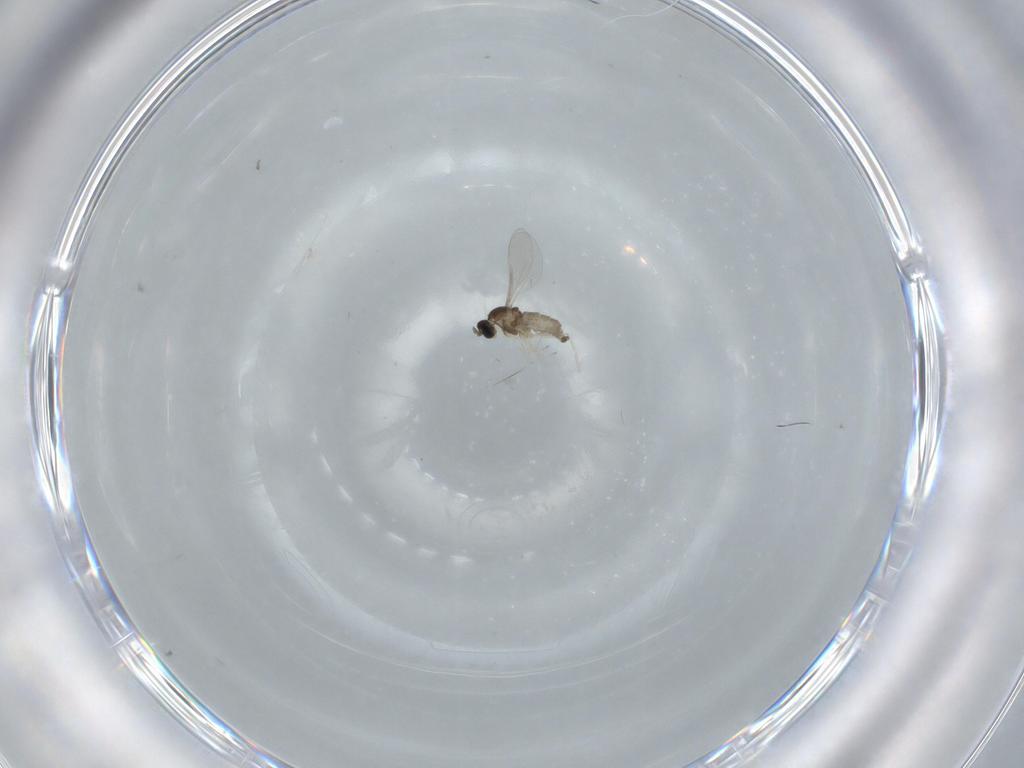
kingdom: Animalia
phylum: Arthropoda
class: Insecta
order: Diptera
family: Cecidomyiidae
